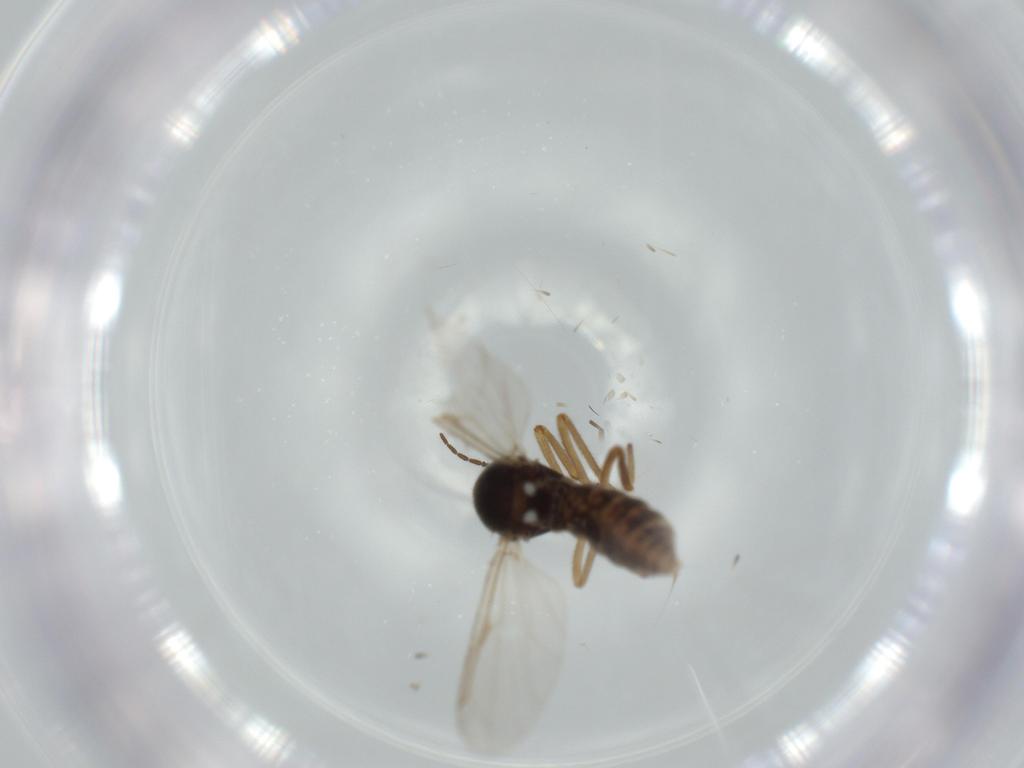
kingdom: Animalia
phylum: Arthropoda
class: Insecta
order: Diptera
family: Ceratopogonidae
